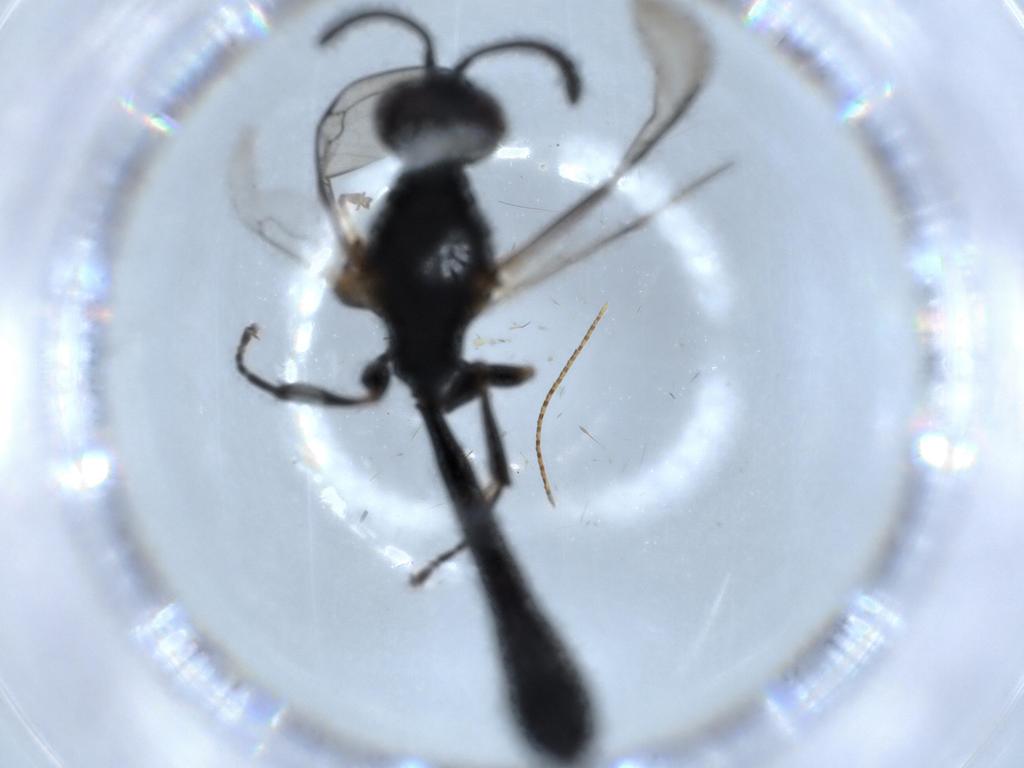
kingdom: Animalia
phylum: Arthropoda
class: Insecta
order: Hymenoptera
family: Crabronidae
